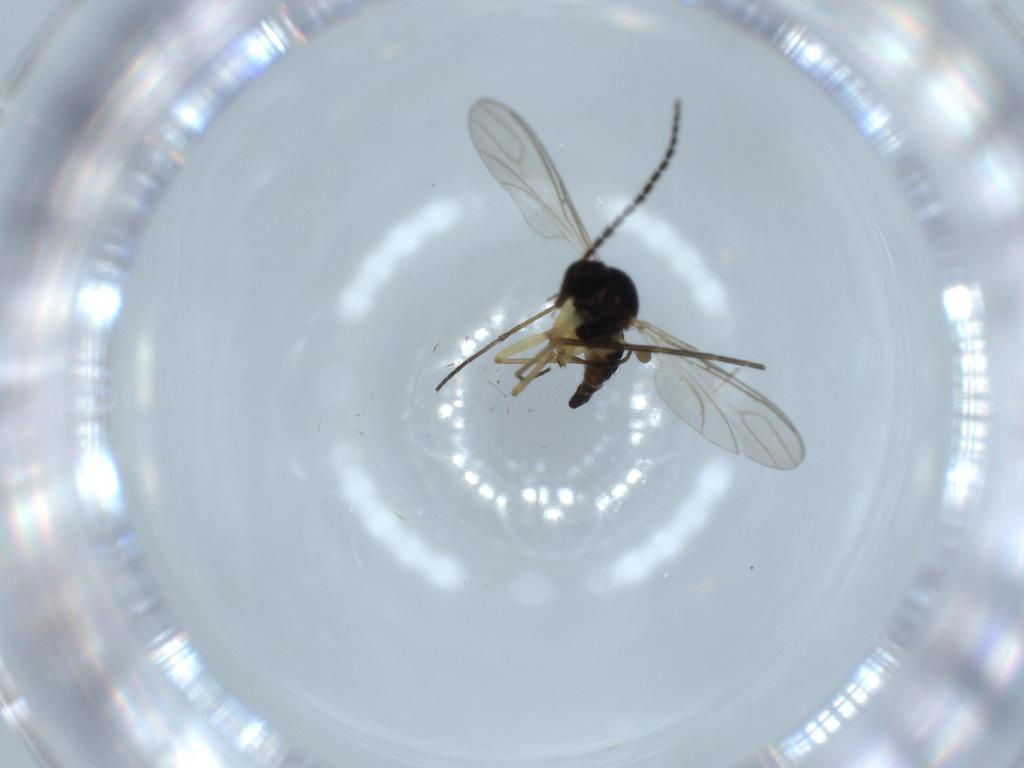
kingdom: Animalia
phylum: Arthropoda
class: Insecta
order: Diptera
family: Sciaridae
